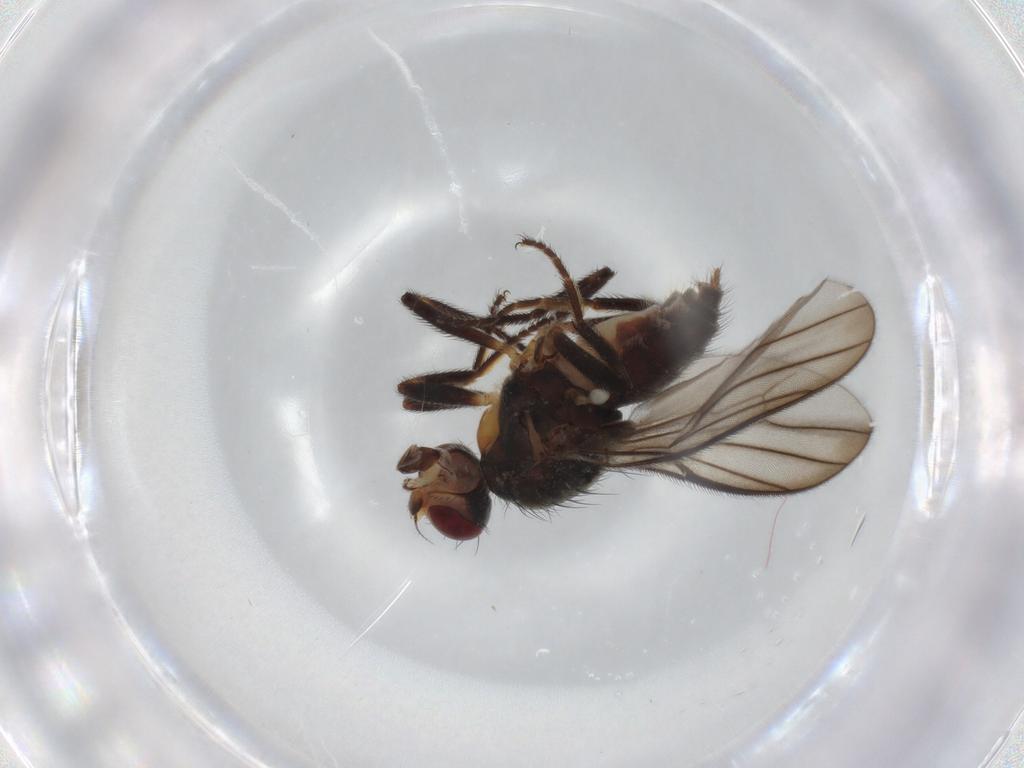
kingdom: Animalia
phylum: Arthropoda
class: Insecta
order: Diptera
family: Chloropidae
